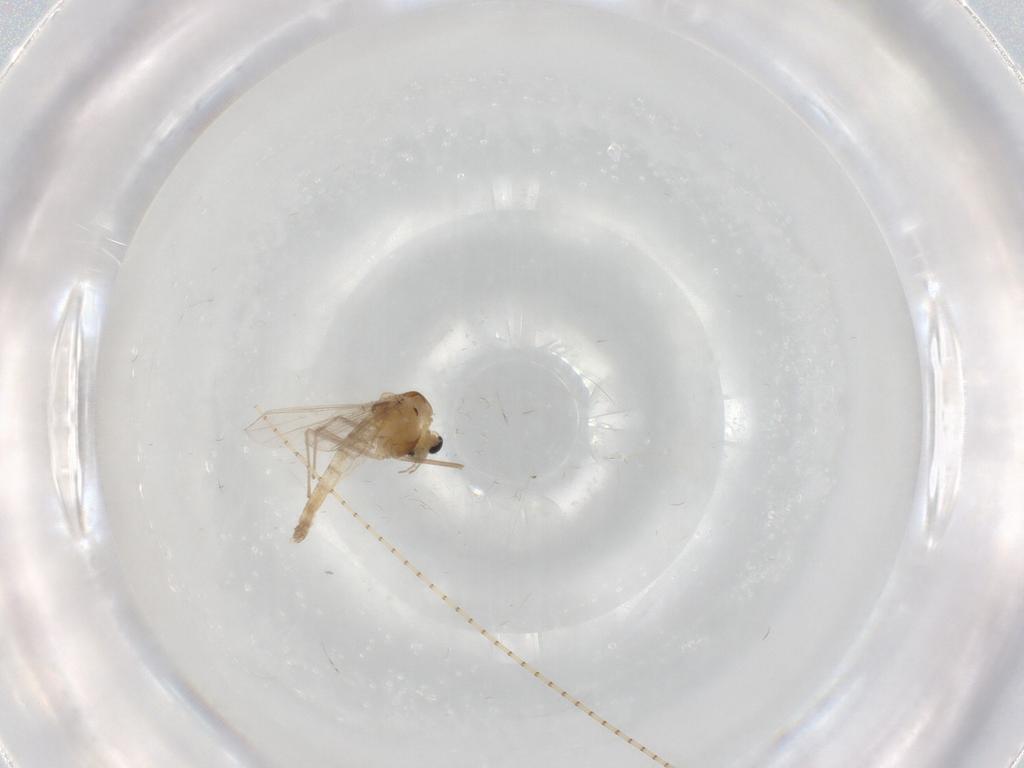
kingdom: Animalia
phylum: Arthropoda
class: Insecta
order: Diptera
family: Chironomidae
